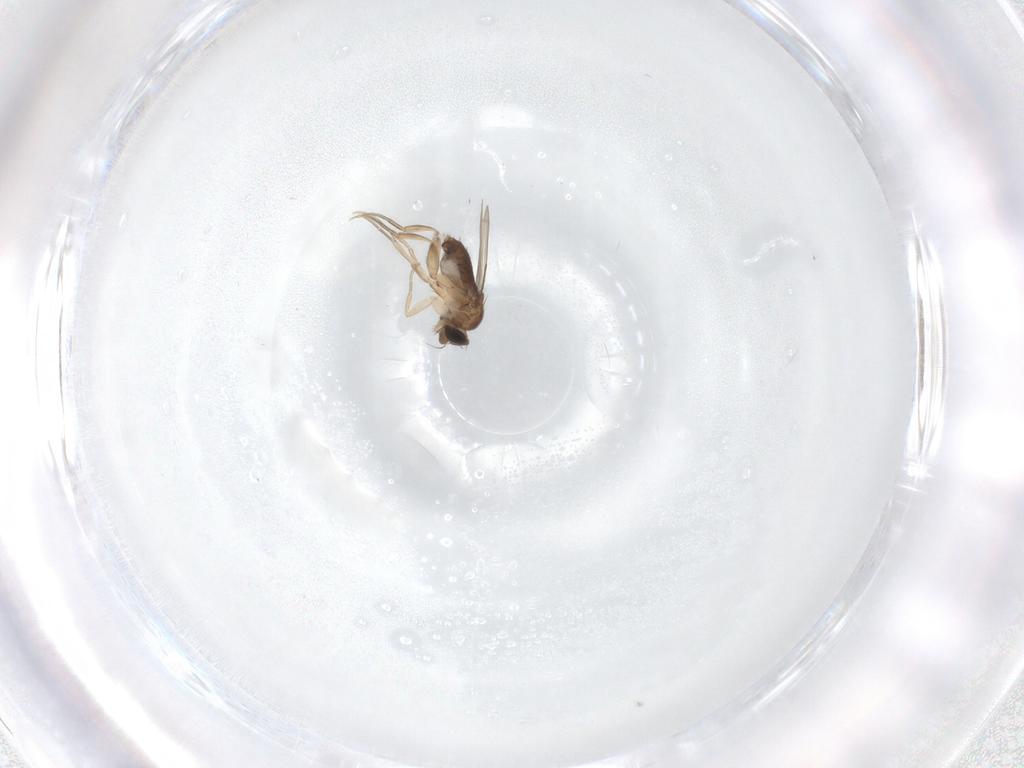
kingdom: Animalia
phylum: Arthropoda
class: Insecta
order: Diptera
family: Phoridae
